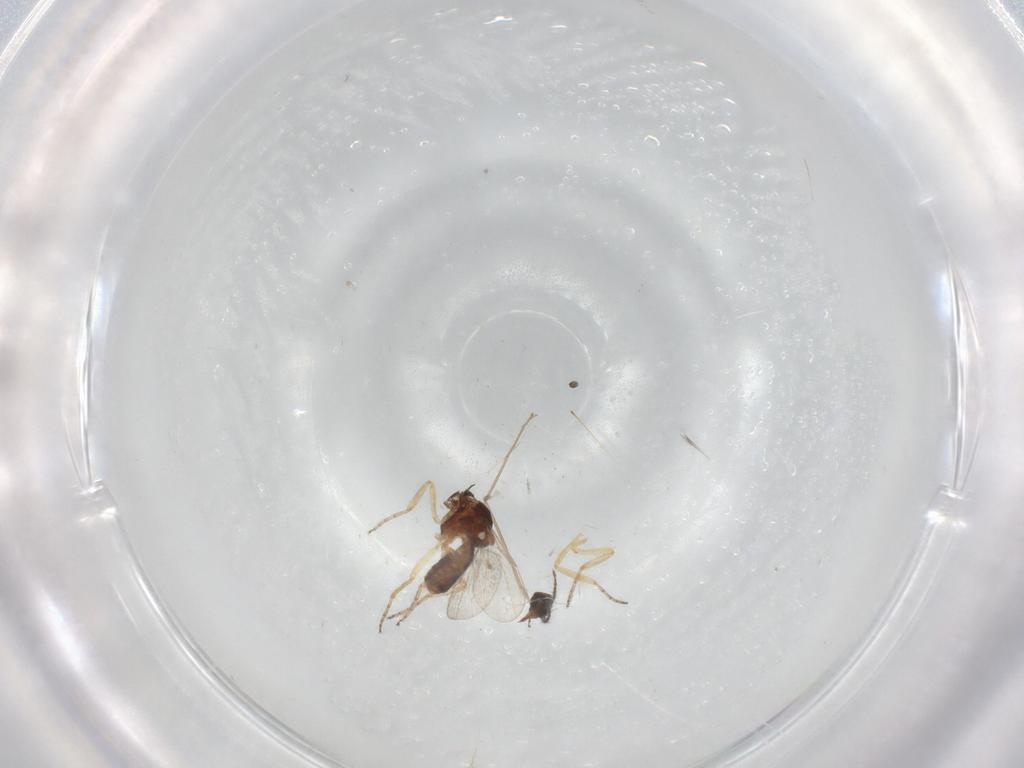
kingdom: Animalia
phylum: Arthropoda
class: Insecta
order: Diptera
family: Ceratopogonidae
